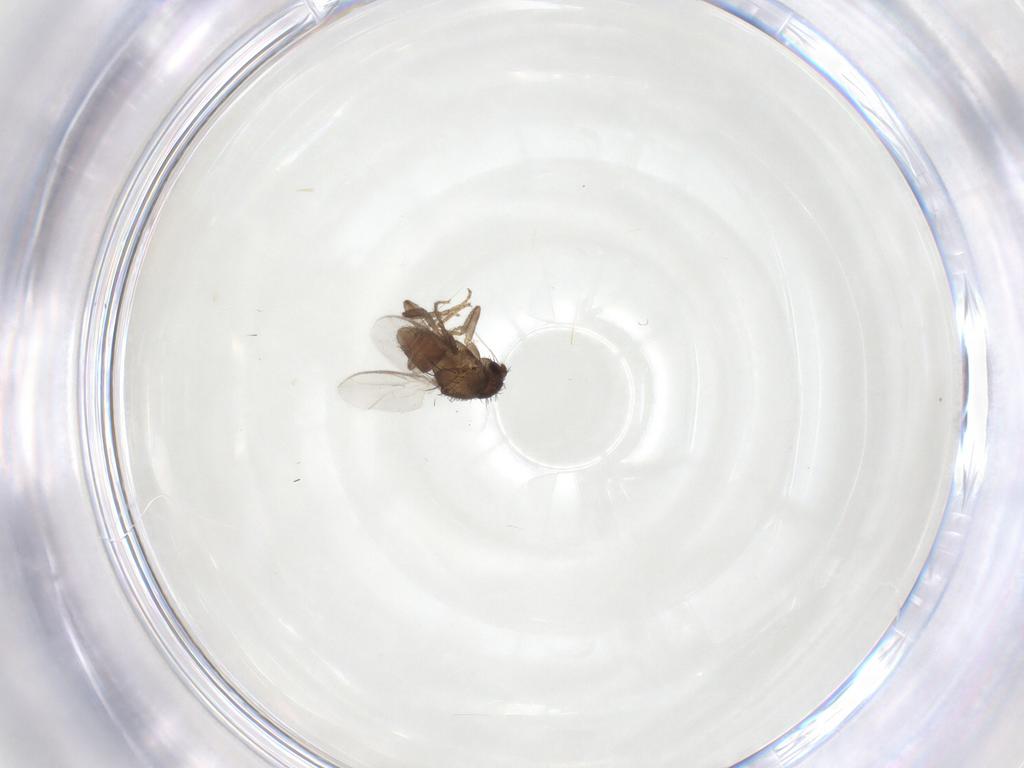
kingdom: Animalia
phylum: Arthropoda
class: Insecta
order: Diptera
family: Sphaeroceridae
